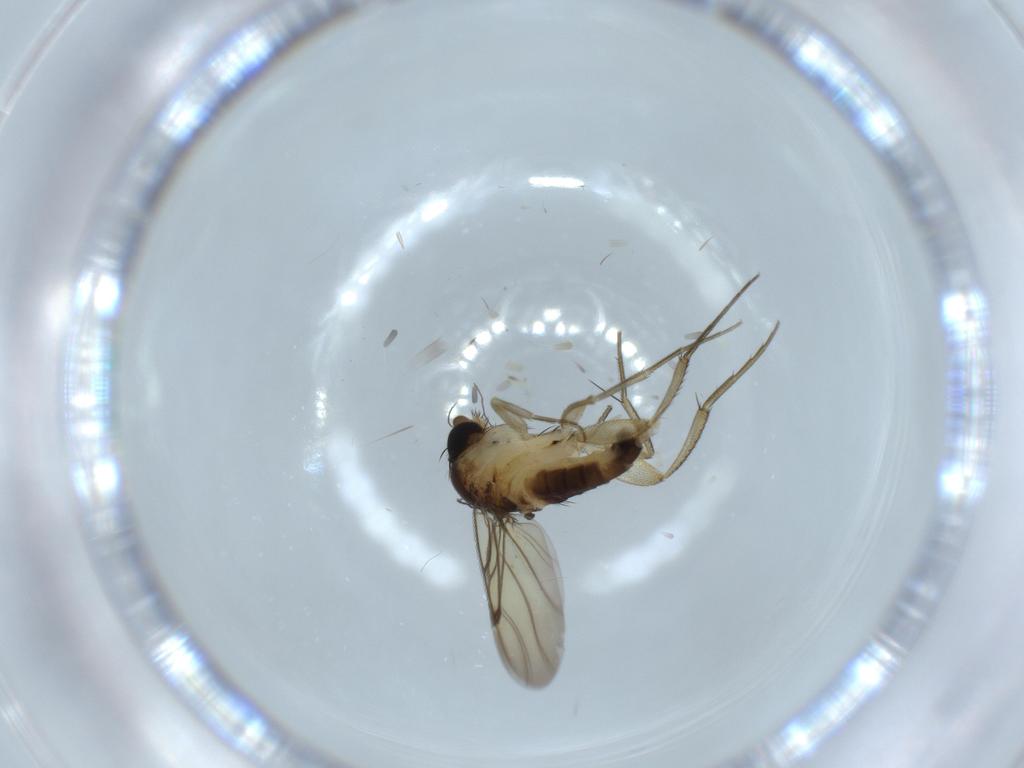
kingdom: Animalia
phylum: Arthropoda
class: Insecta
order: Diptera
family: Phoridae
